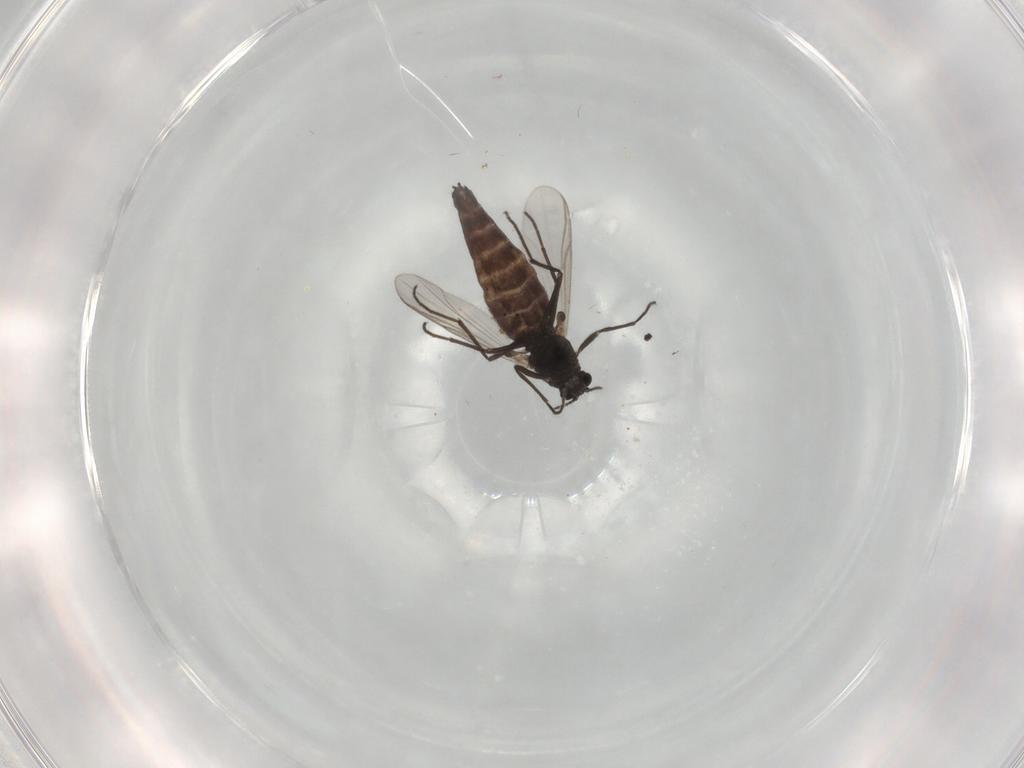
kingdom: Animalia
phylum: Arthropoda
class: Insecta
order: Diptera
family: Chironomidae
